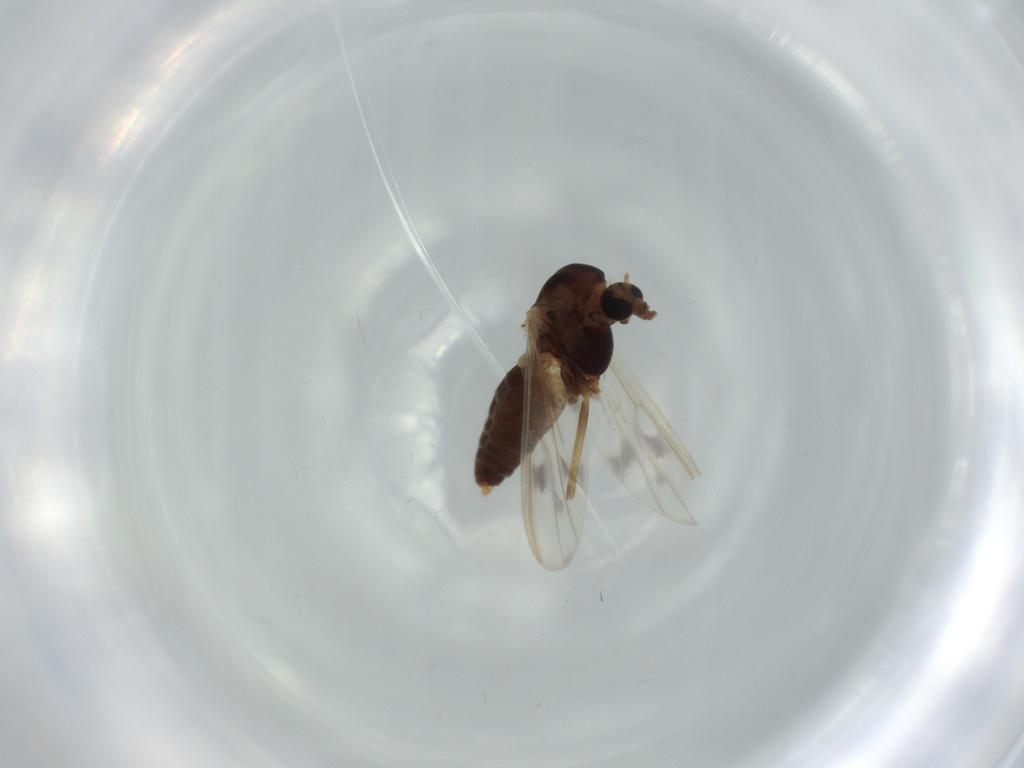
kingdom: Animalia
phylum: Arthropoda
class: Insecta
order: Diptera
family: Chironomidae
